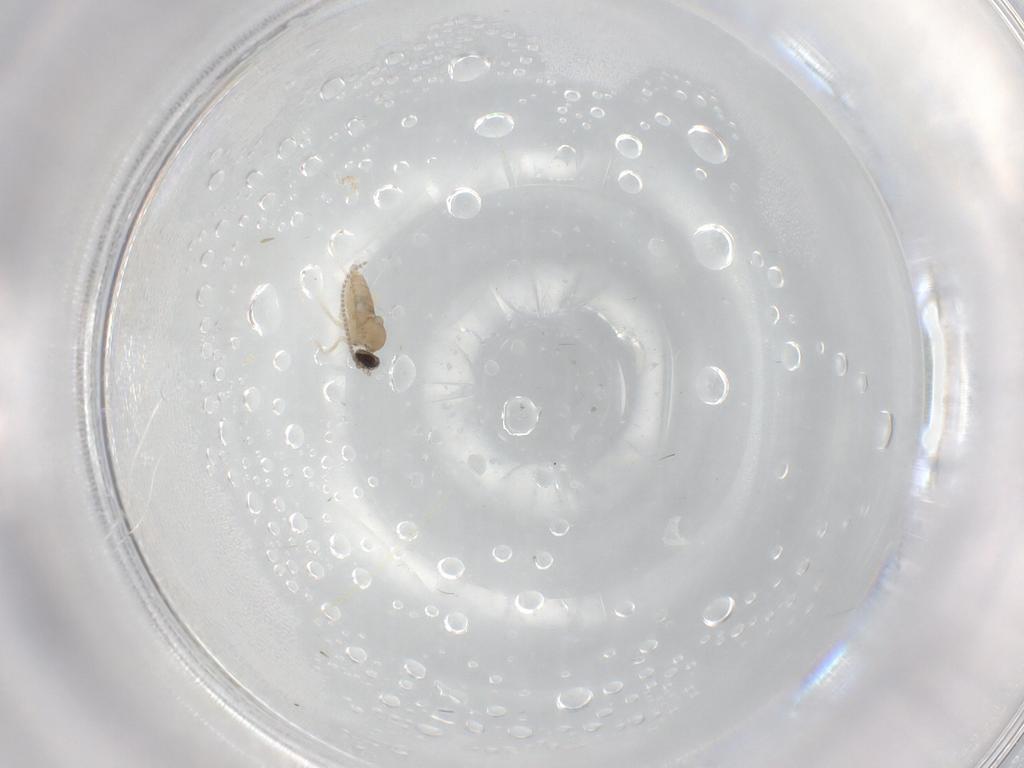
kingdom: Animalia
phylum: Arthropoda
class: Insecta
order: Diptera
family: Cecidomyiidae
